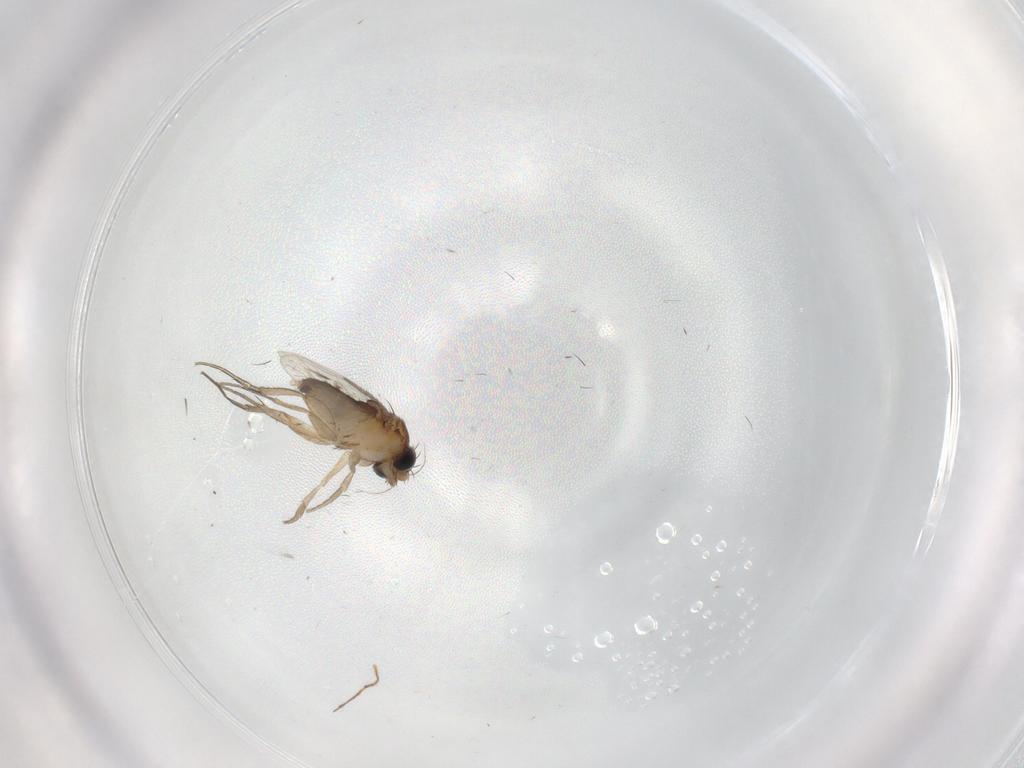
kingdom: Animalia
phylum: Arthropoda
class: Insecta
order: Diptera
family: Phoridae
